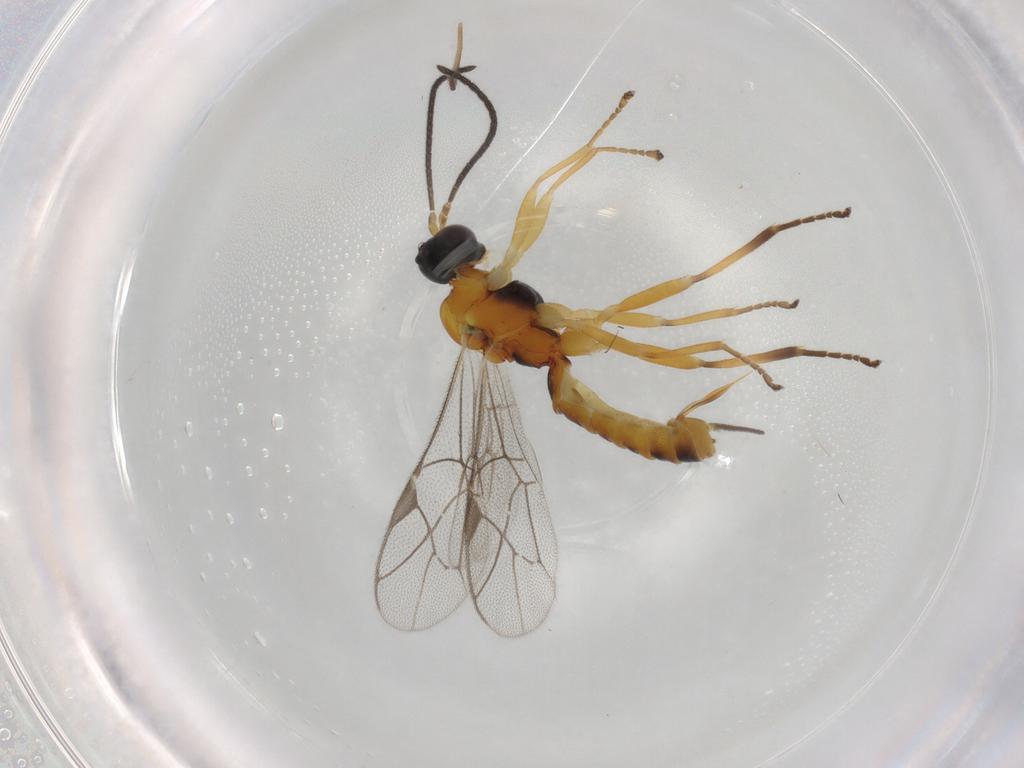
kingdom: Animalia
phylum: Arthropoda
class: Insecta
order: Hymenoptera
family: Ichneumonidae
